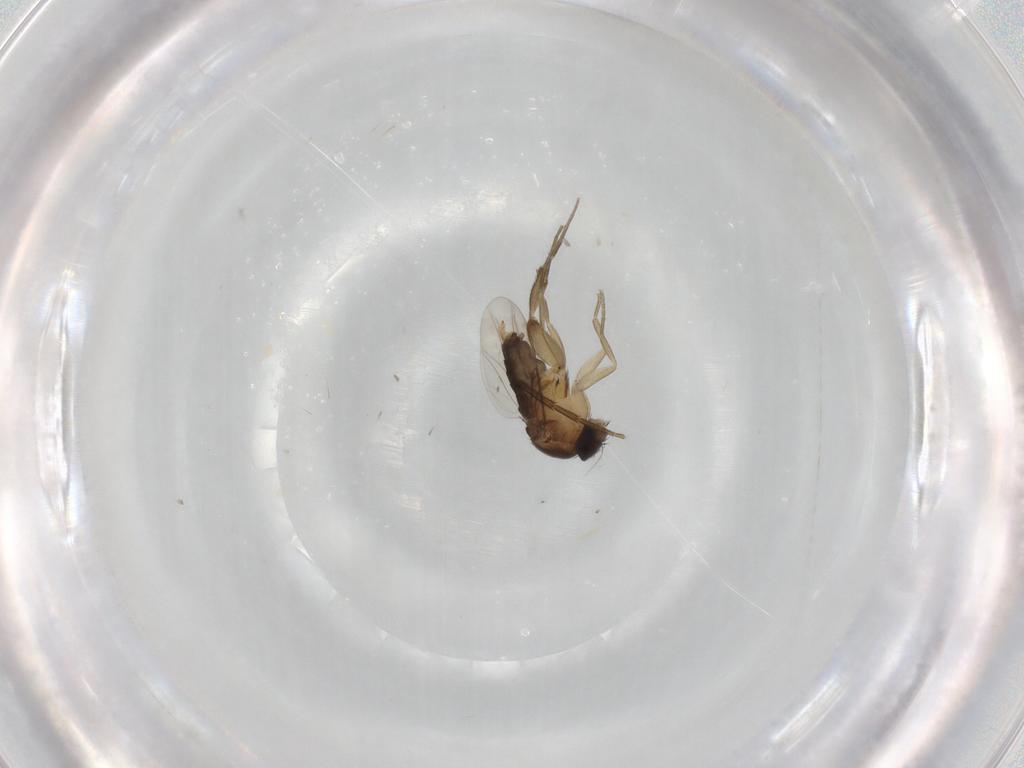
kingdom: Animalia
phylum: Arthropoda
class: Insecta
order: Diptera
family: Phoridae
